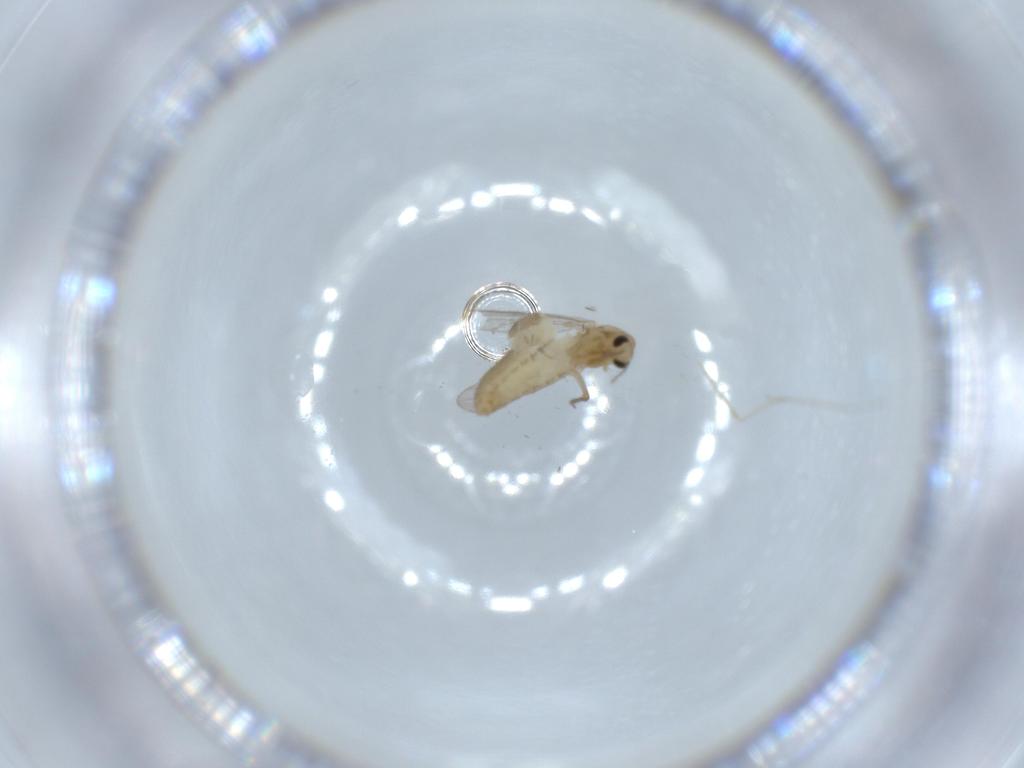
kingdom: Animalia
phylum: Arthropoda
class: Insecta
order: Diptera
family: Chironomidae
